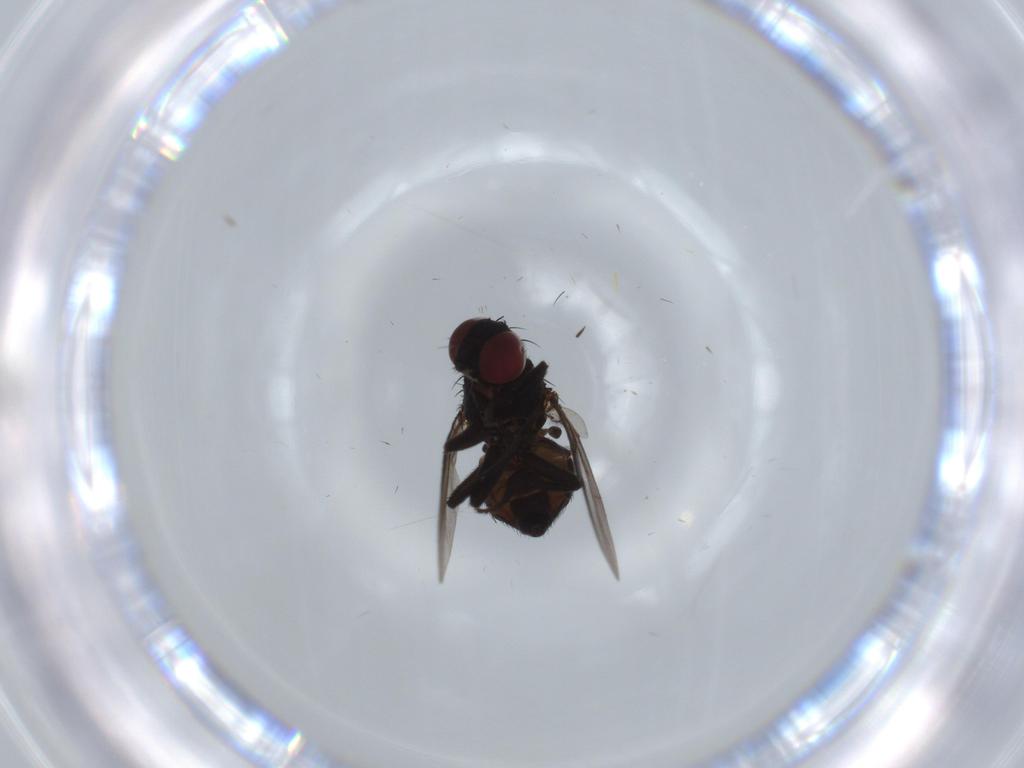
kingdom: Animalia
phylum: Arthropoda
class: Insecta
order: Diptera
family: Agromyzidae
